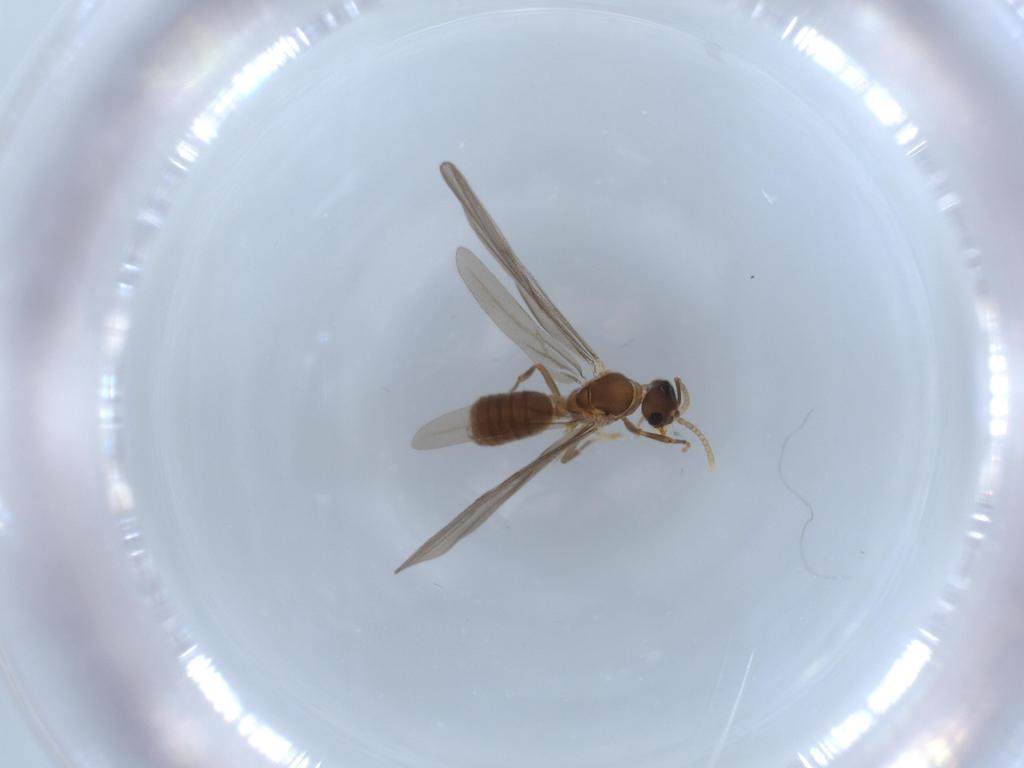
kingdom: Animalia
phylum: Arthropoda
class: Insecta
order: Hymenoptera
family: Formicidae
